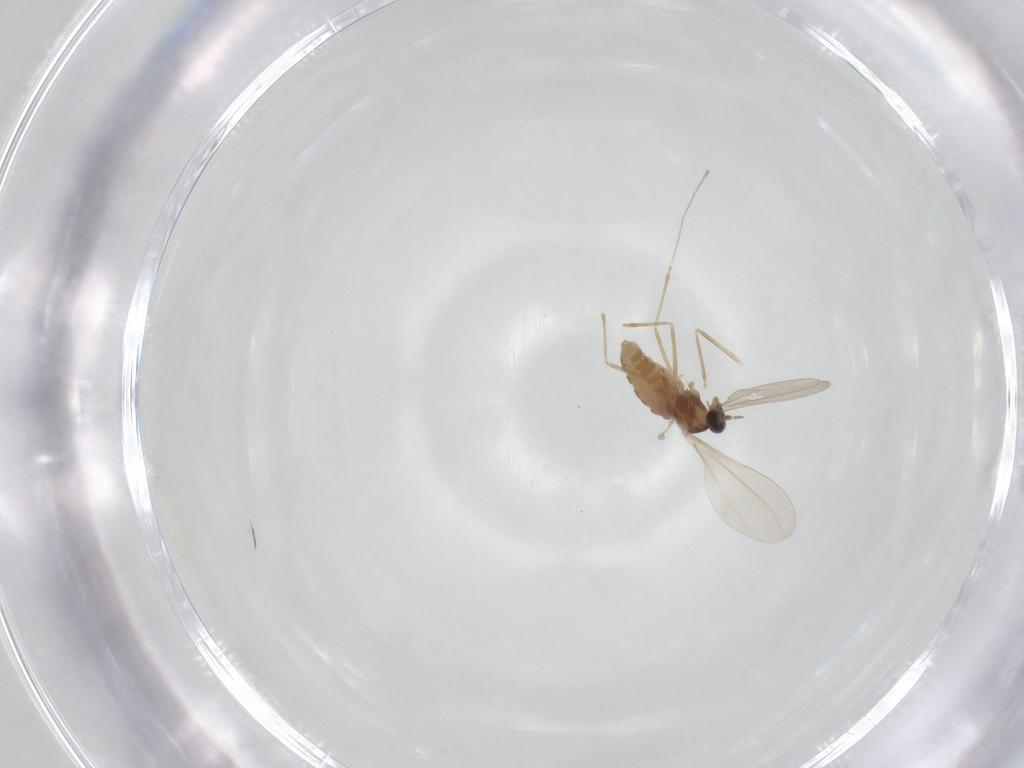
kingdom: Animalia
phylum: Arthropoda
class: Insecta
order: Diptera
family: Cecidomyiidae
